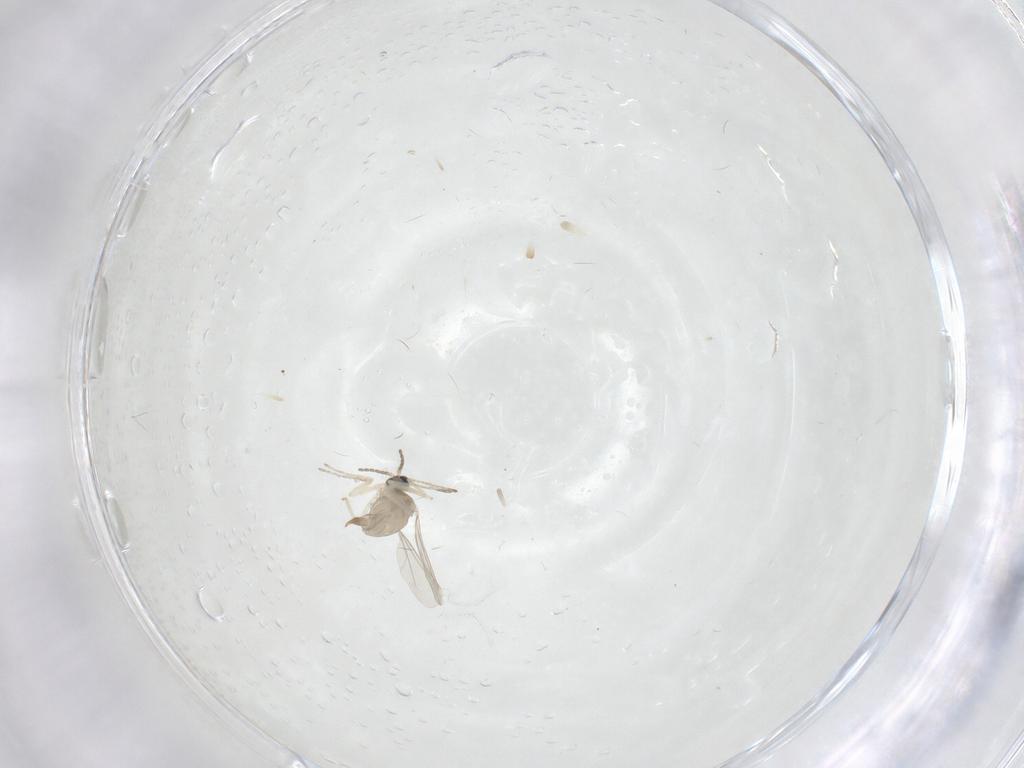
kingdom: Animalia
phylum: Arthropoda
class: Insecta
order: Diptera
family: Cecidomyiidae
